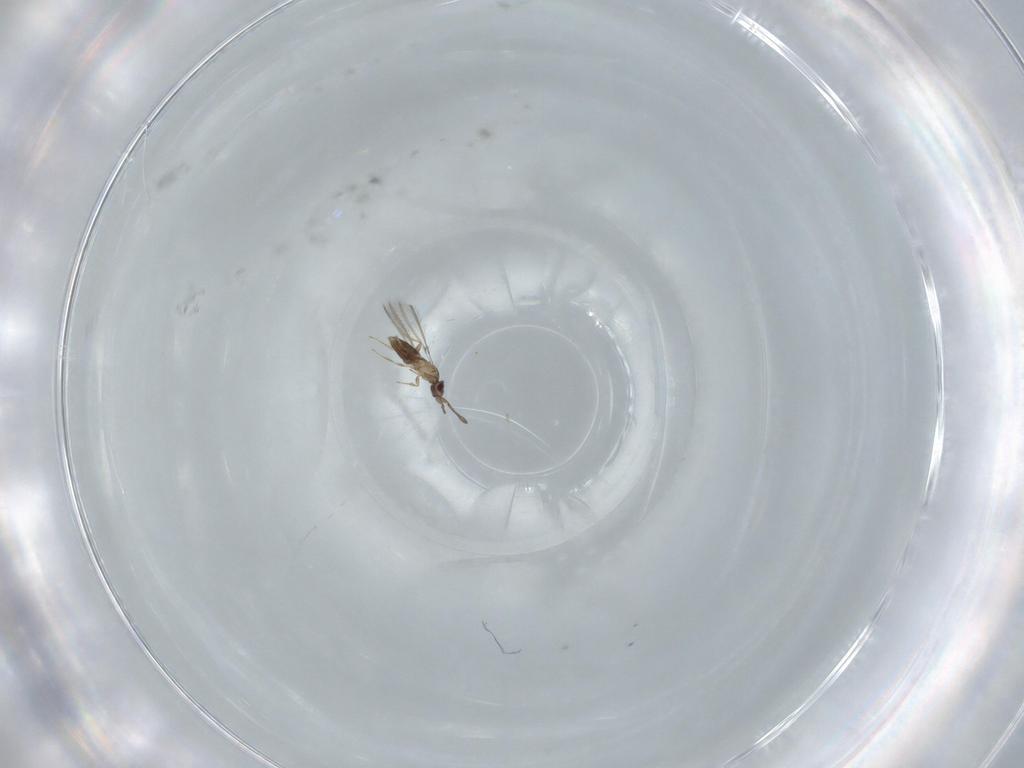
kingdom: Animalia
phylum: Arthropoda
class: Insecta
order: Hymenoptera
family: Mymaridae
